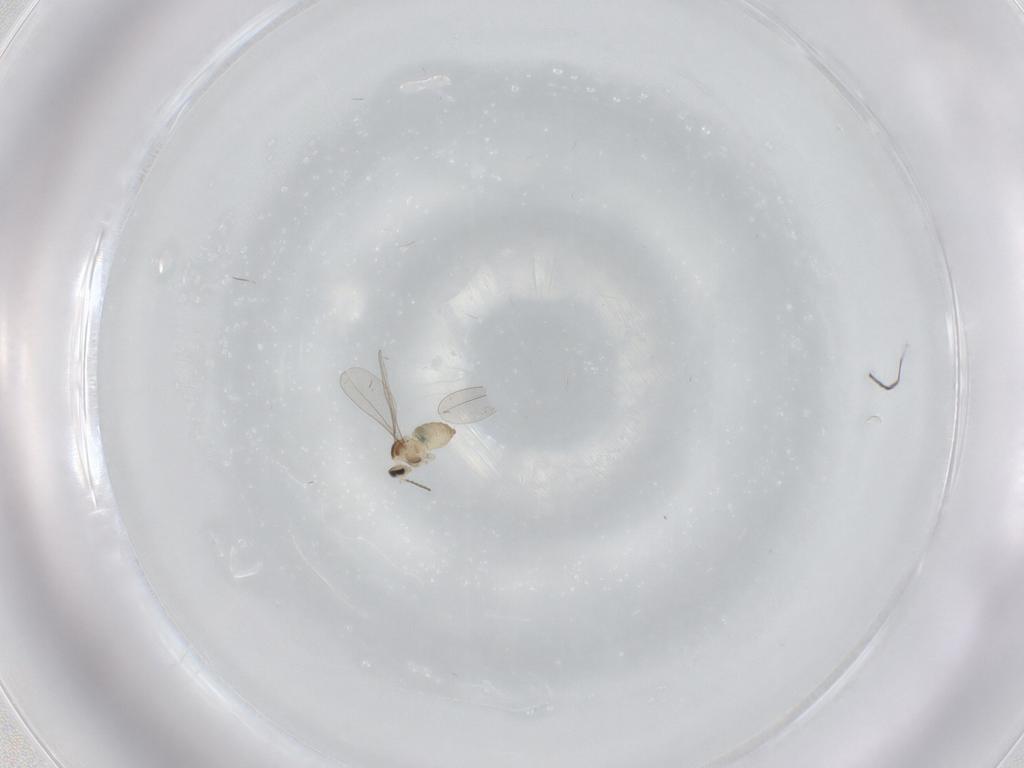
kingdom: Animalia
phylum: Arthropoda
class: Insecta
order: Diptera
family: Cecidomyiidae
